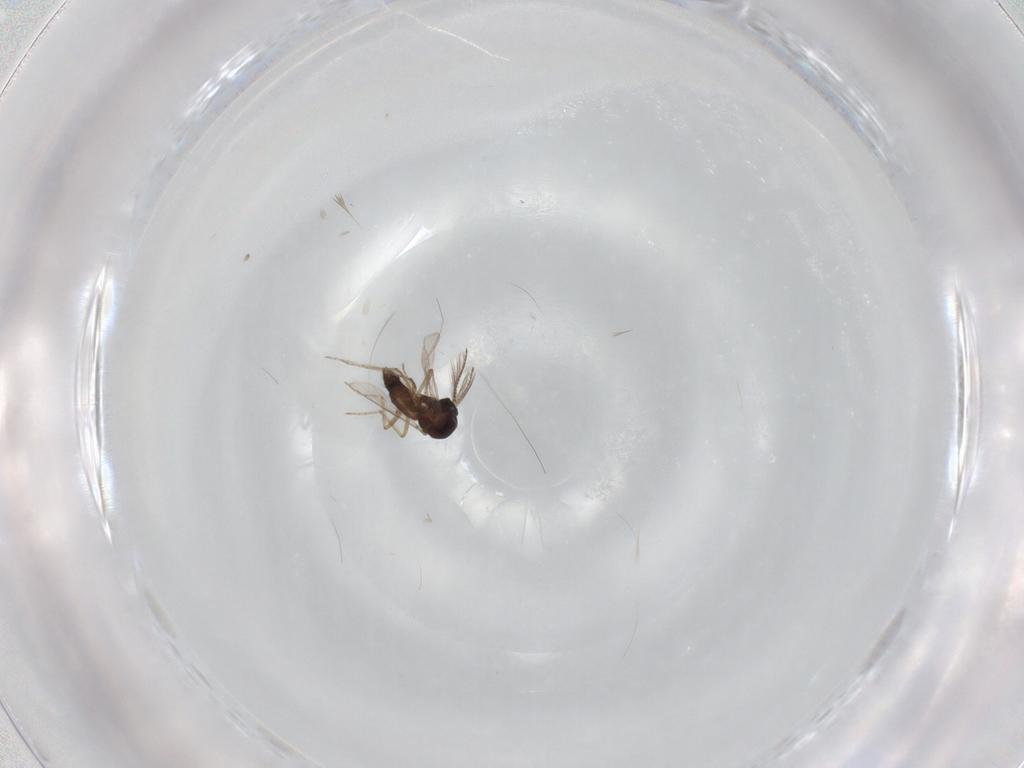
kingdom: Animalia
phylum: Arthropoda
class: Insecta
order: Diptera
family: Ceratopogonidae
